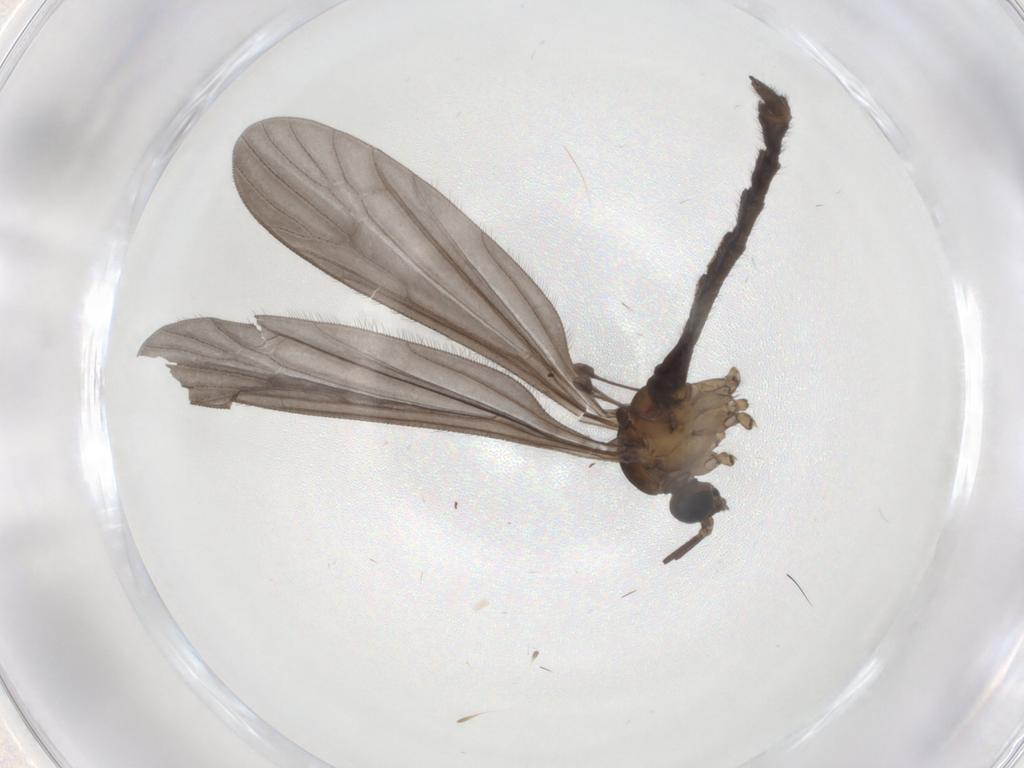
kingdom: Animalia
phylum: Arthropoda
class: Insecta
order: Diptera
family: Limoniidae
